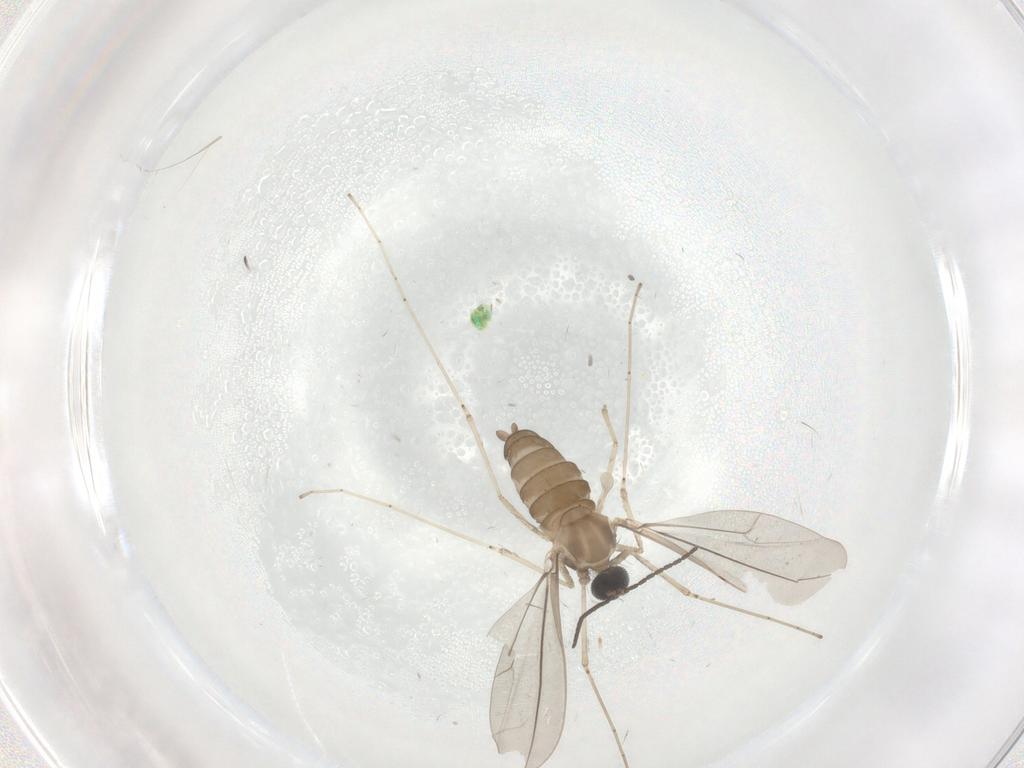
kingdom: Animalia
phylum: Arthropoda
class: Insecta
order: Diptera
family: Cecidomyiidae
